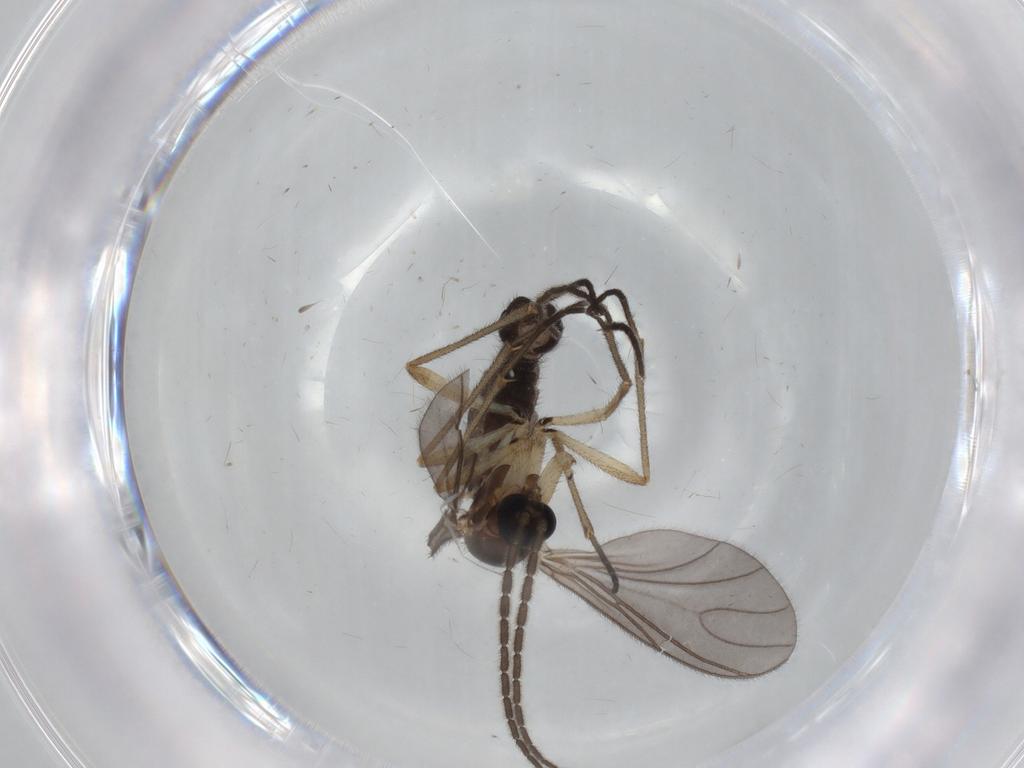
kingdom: Animalia
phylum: Arthropoda
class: Insecta
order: Diptera
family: Sciaridae
